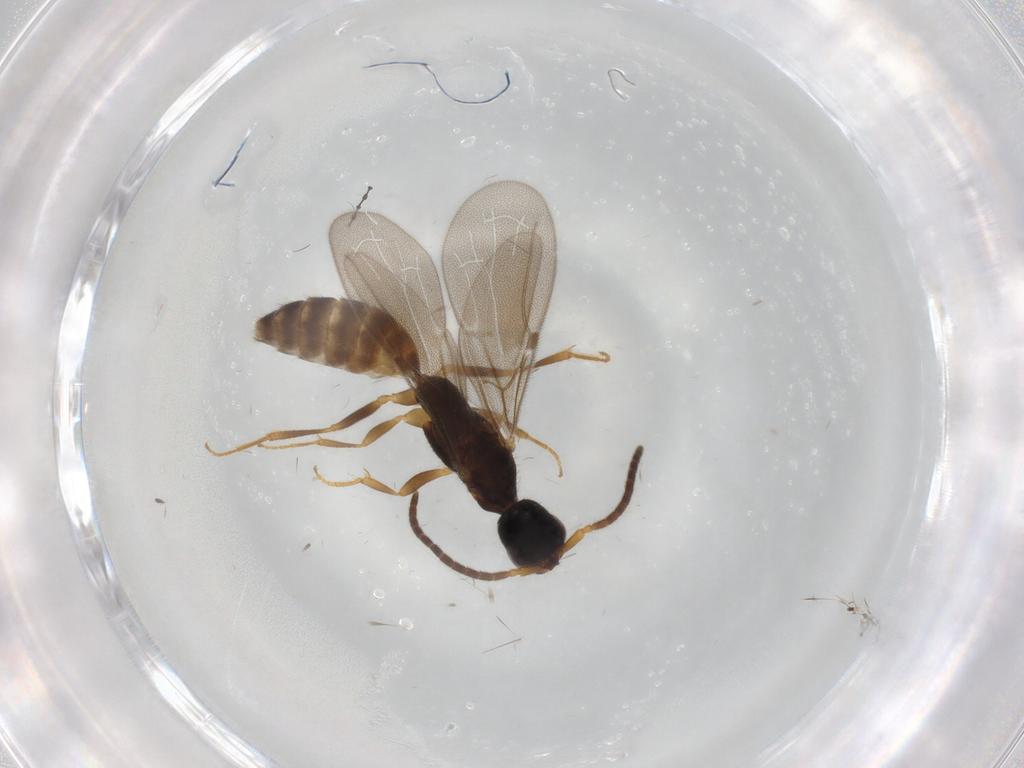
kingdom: Animalia
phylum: Arthropoda
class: Insecta
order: Hymenoptera
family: Bethylidae
